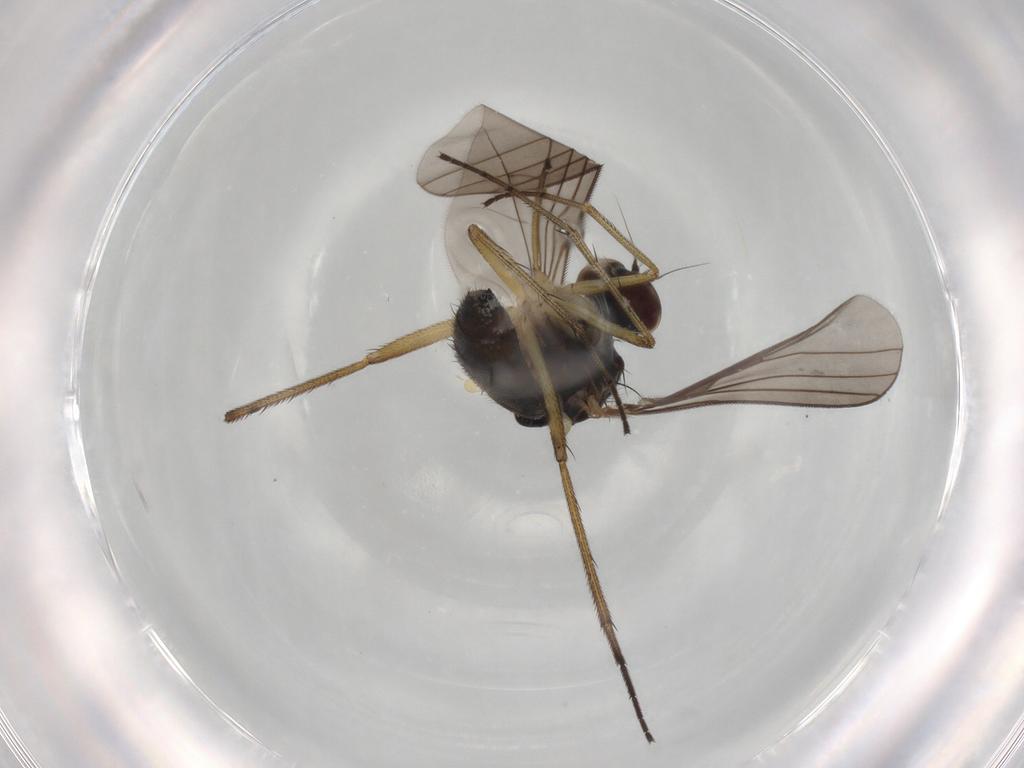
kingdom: Animalia
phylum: Arthropoda
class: Insecta
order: Diptera
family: Dolichopodidae
